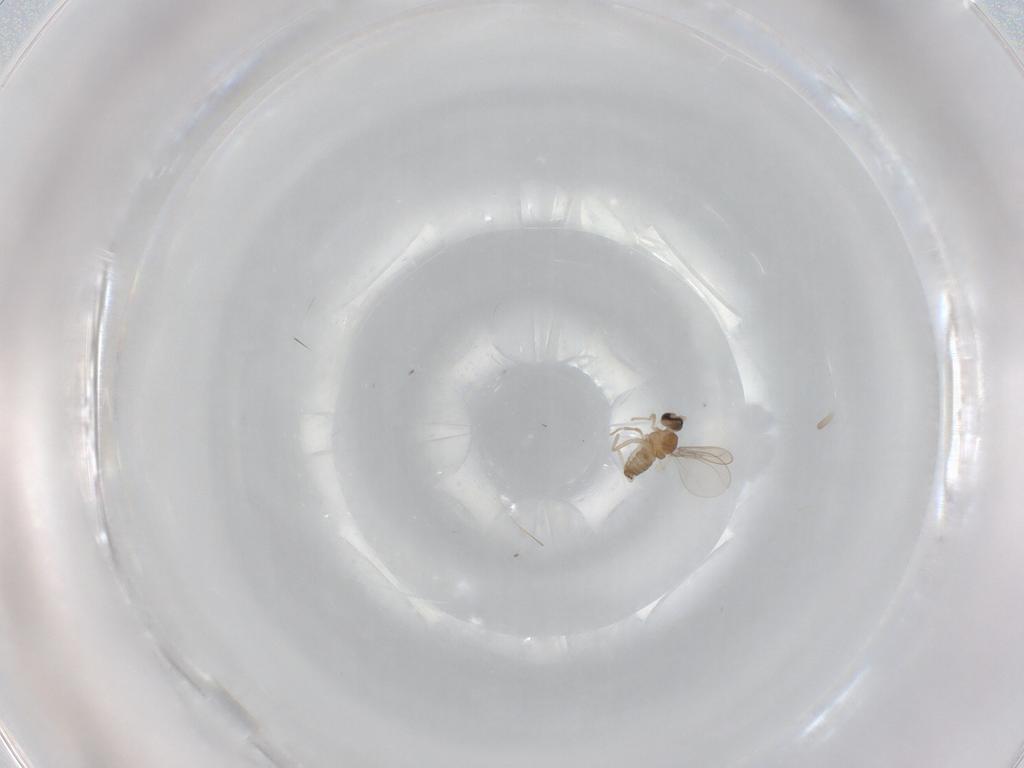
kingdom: Animalia
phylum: Arthropoda
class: Insecta
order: Diptera
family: Cecidomyiidae
